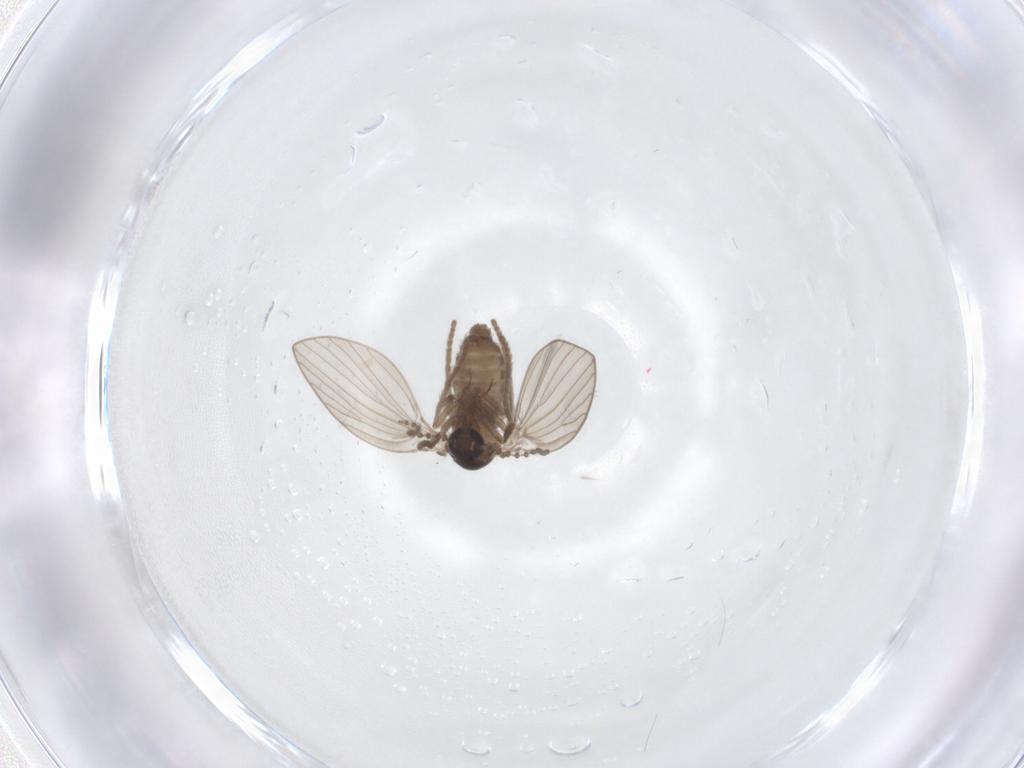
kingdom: Animalia
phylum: Arthropoda
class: Insecta
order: Diptera
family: Psychodidae
